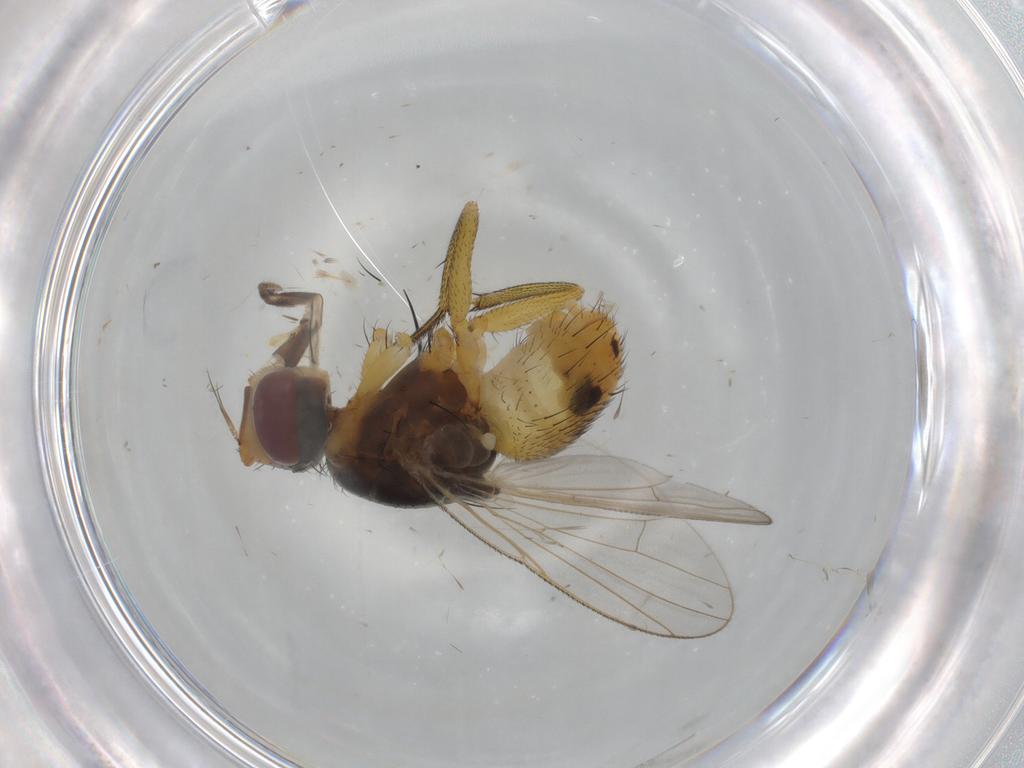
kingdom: Animalia
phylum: Arthropoda
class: Insecta
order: Diptera
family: Muscidae
